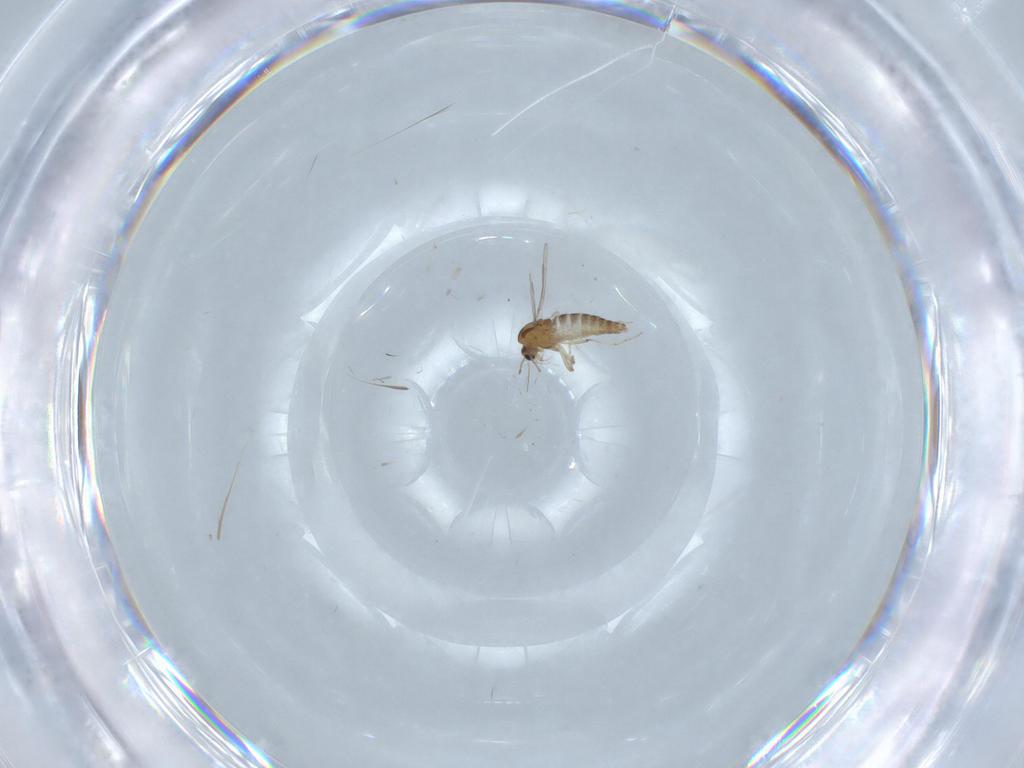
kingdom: Animalia
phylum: Arthropoda
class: Insecta
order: Diptera
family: Chironomidae
